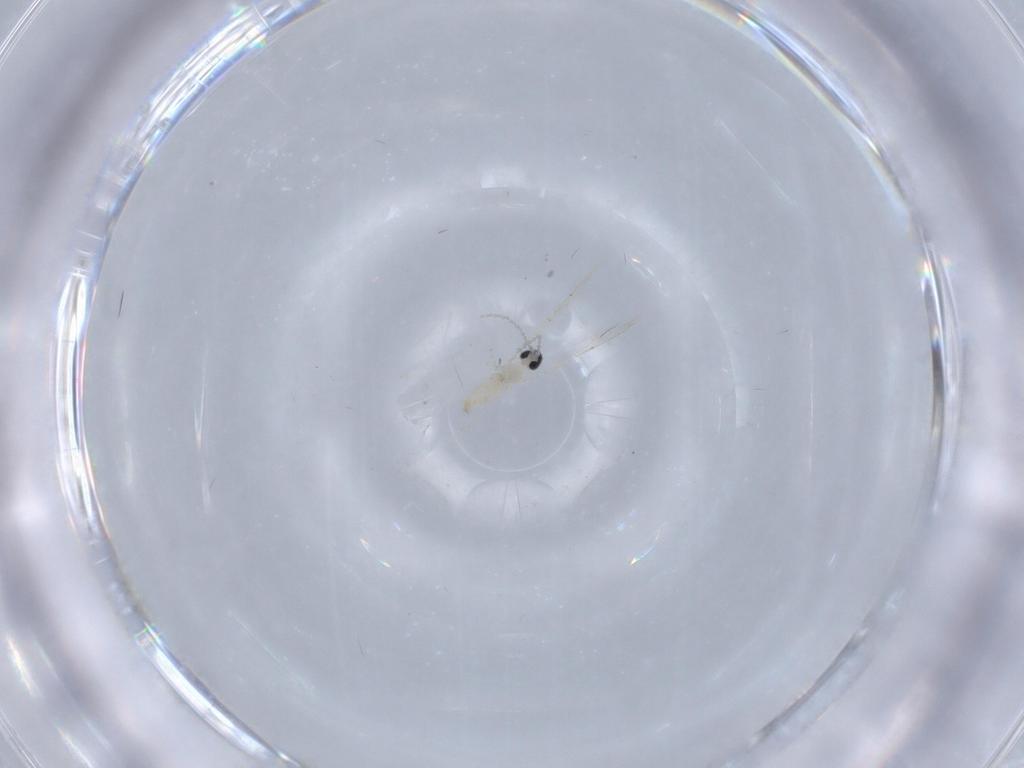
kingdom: Animalia
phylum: Arthropoda
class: Insecta
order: Diptera
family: Cecidomyiidae
